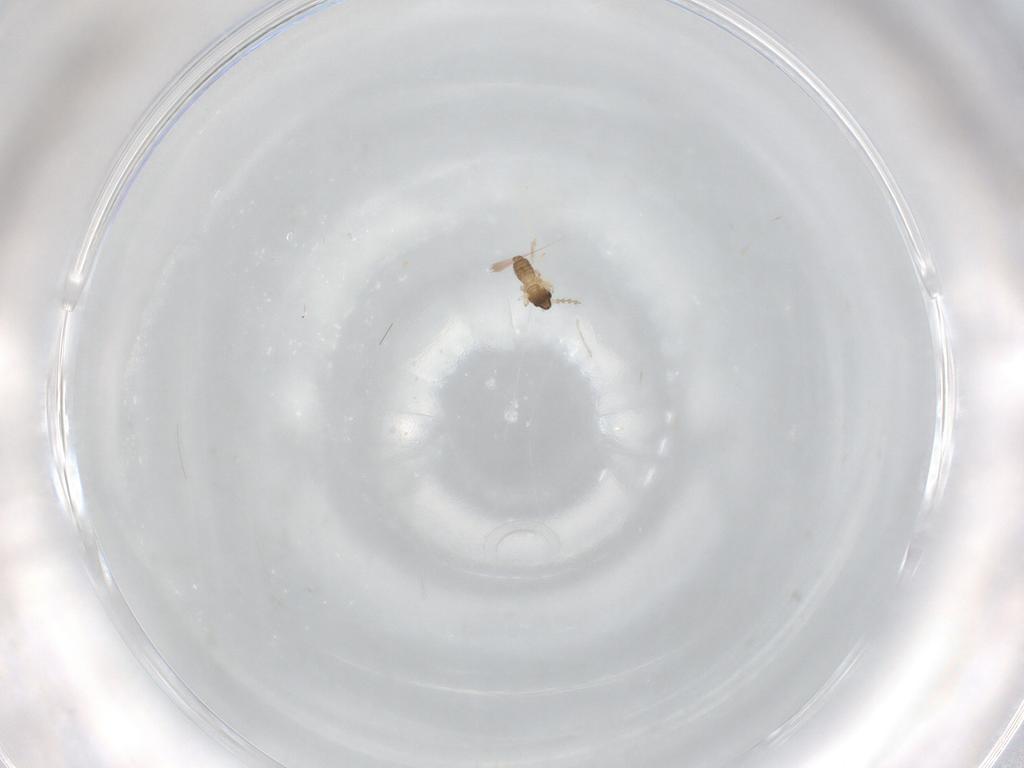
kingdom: Animalia
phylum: Arthropoda
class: Insecta
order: Diptera
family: Cecidomyiidae
